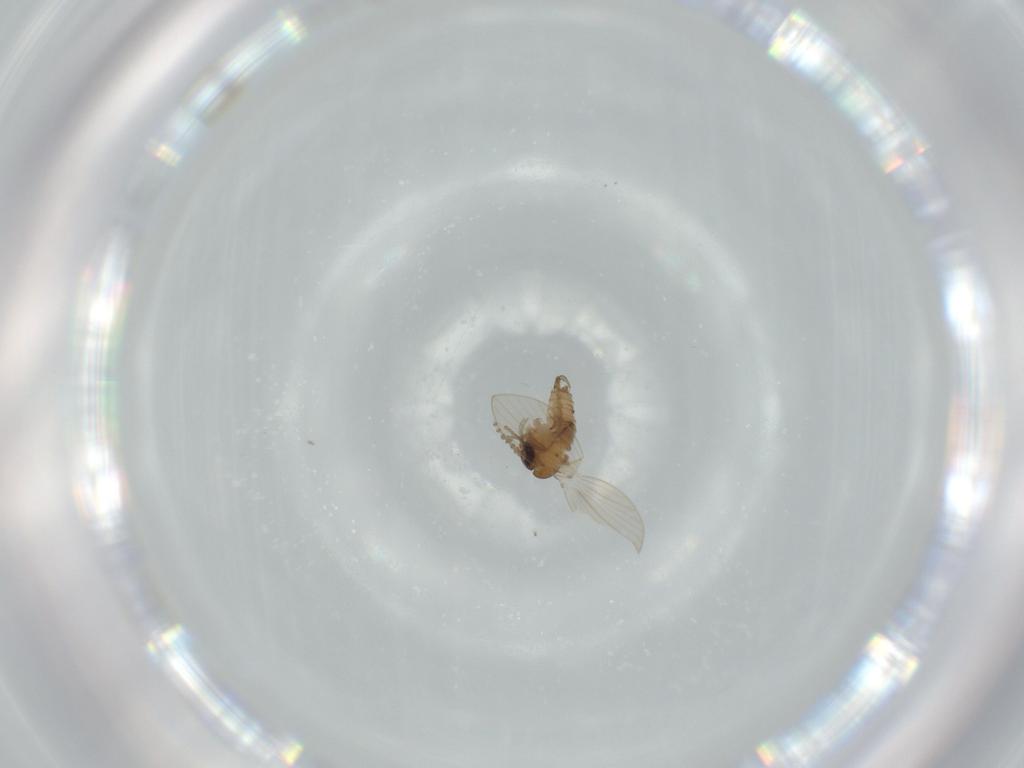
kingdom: Animalia
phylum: Arthropoda
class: Insecta
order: Diptera
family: Psychodidae
